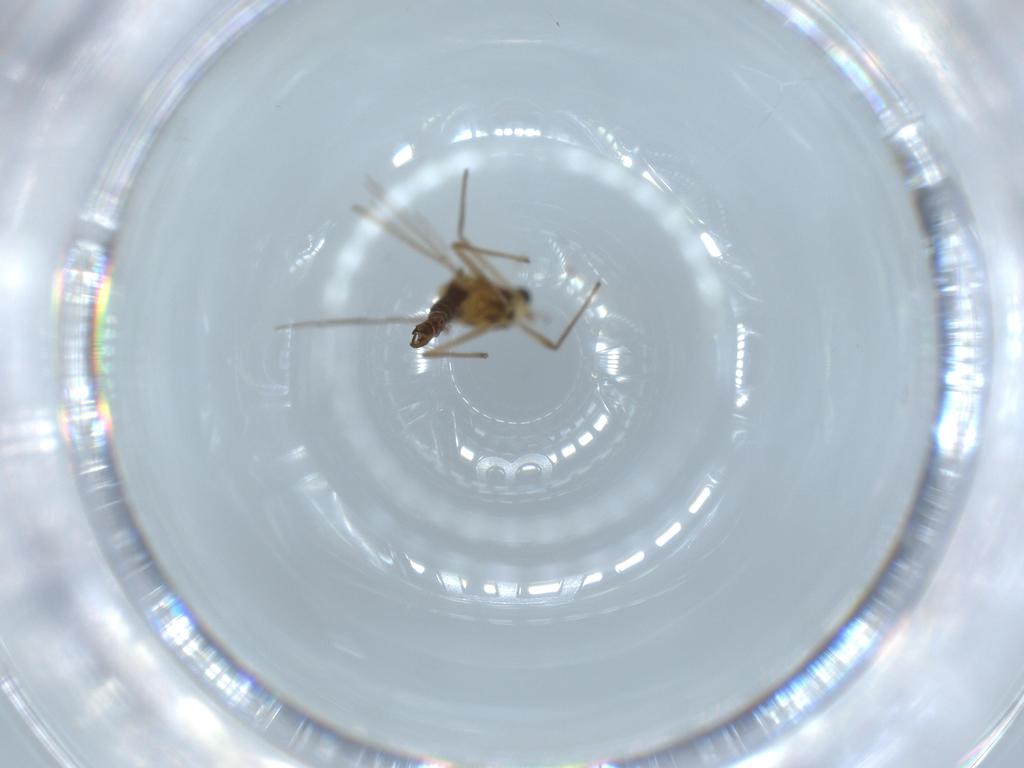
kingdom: Animalia
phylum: Arthropoda
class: Insecta
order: Diptera
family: Chironomidae
